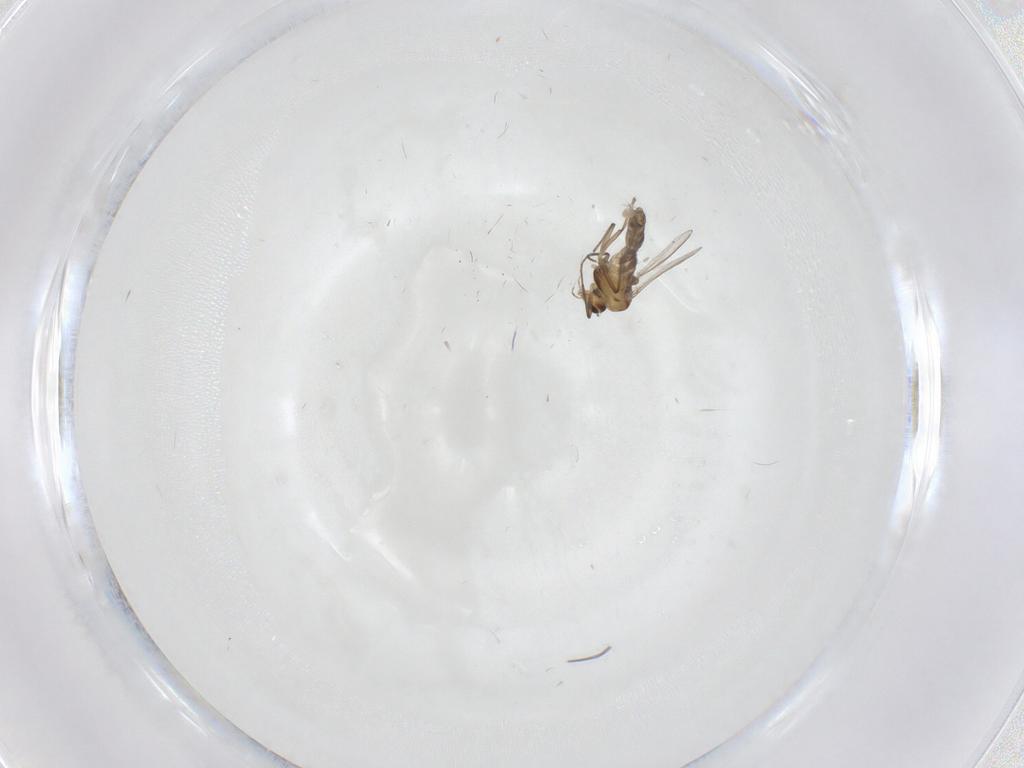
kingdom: Animalia
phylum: Arthropoda
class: Insecta
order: Diptera
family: Chironomidae
